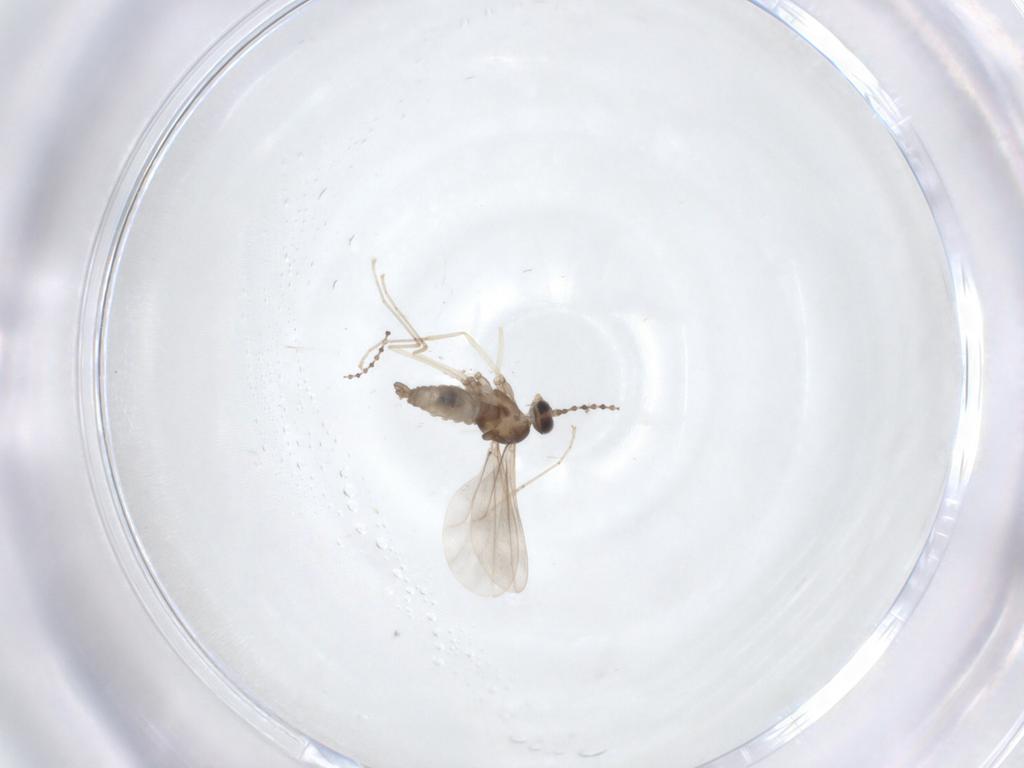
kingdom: Animalia
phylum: Arthropoda
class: Insecta
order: Diptera
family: Cecidomyiidae
